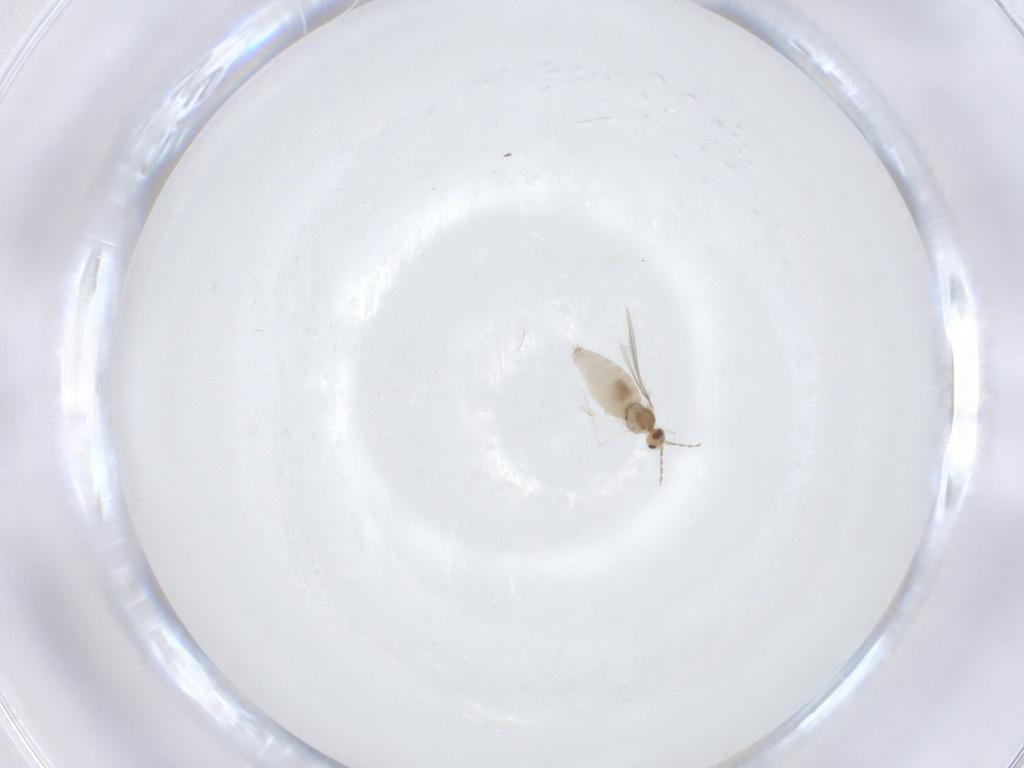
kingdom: Animalia
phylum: Arthropoda
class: Insecta
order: Diptera
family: Cecidomyiidae
